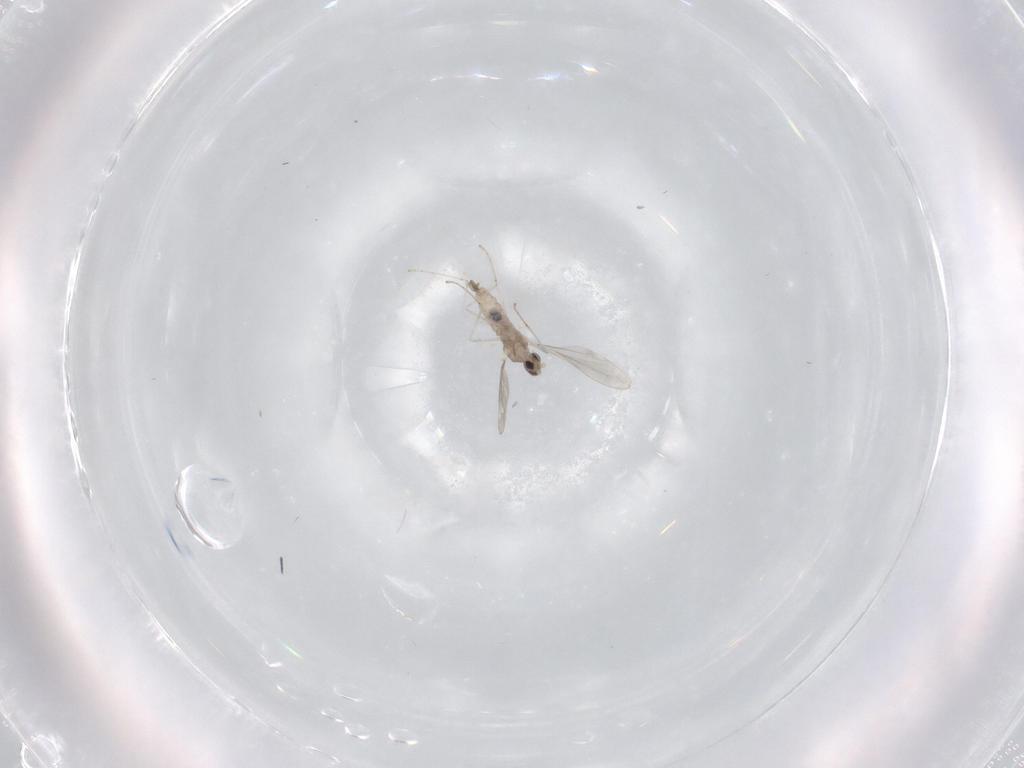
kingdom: Animalia
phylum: Arthropoda
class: Insecta
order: Diptera
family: Cecidomyiidae
